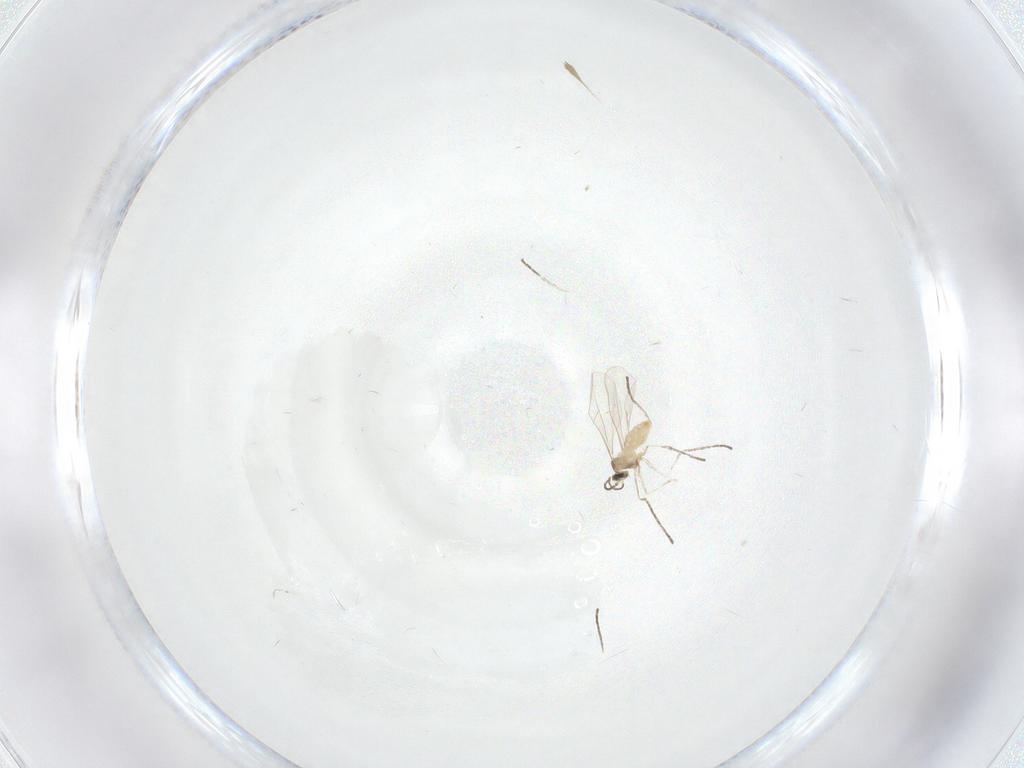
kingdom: Animalia
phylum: Arthropoda
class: Insecta
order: Diptera
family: Cecidomyiidae
